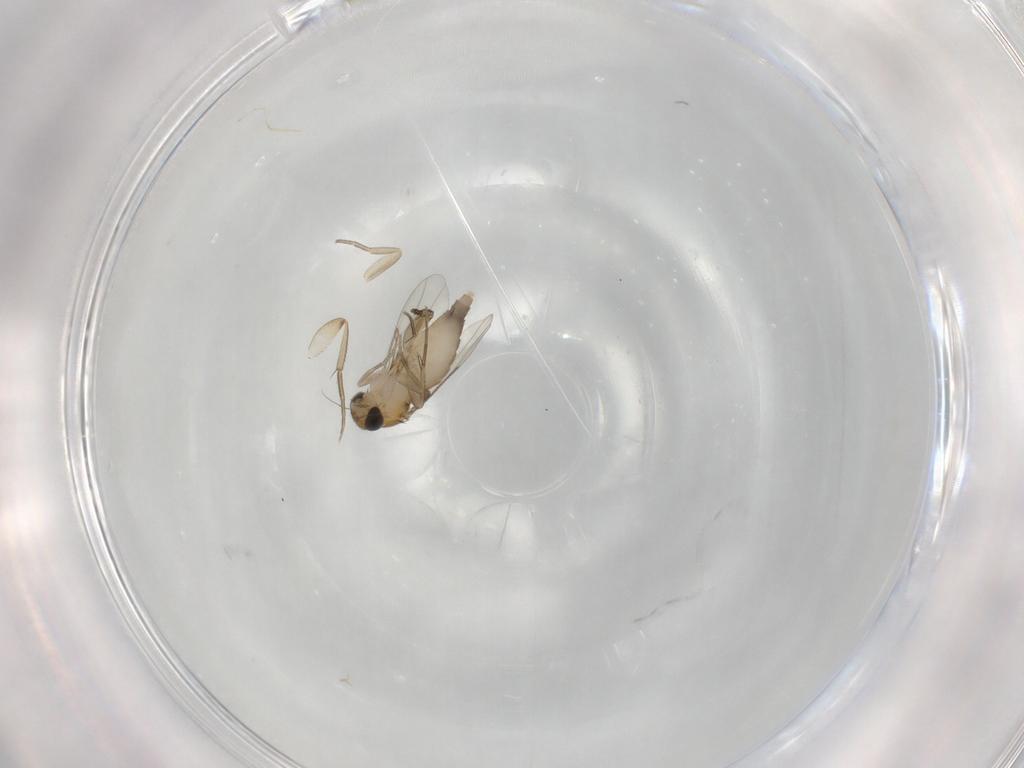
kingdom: Animalia
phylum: Arthropoda
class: Insecta
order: Diptera
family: Phoridae
